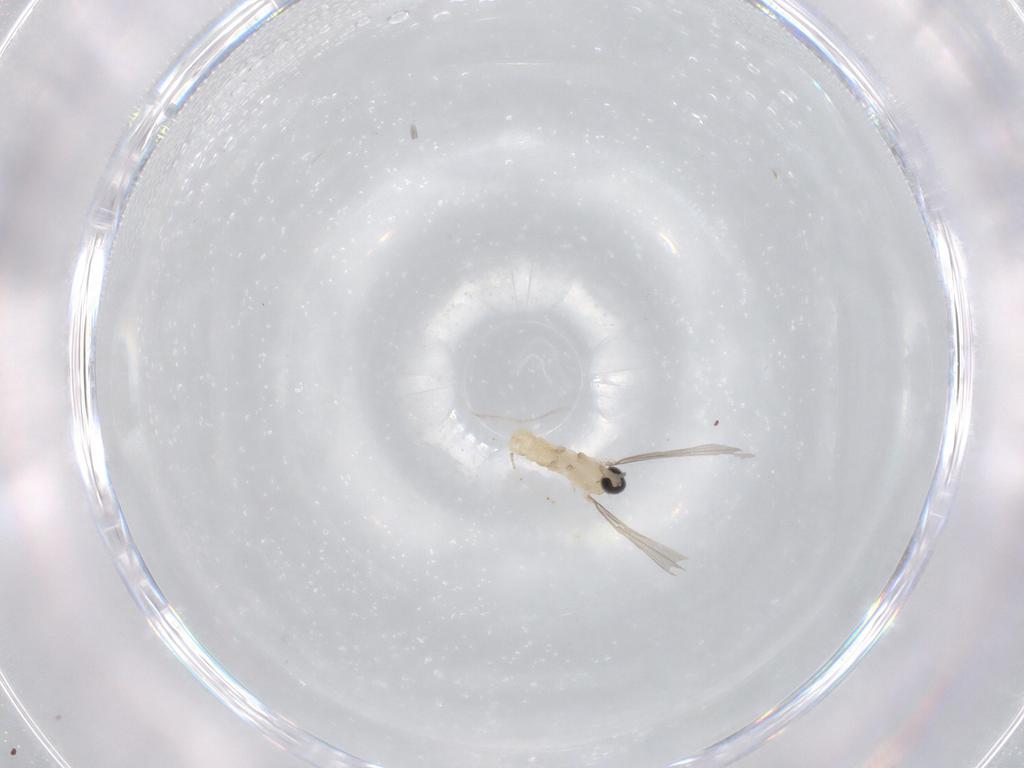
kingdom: Animalia
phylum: Arthropoda
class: Insecta
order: Diptera
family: Cecidomyiidae
